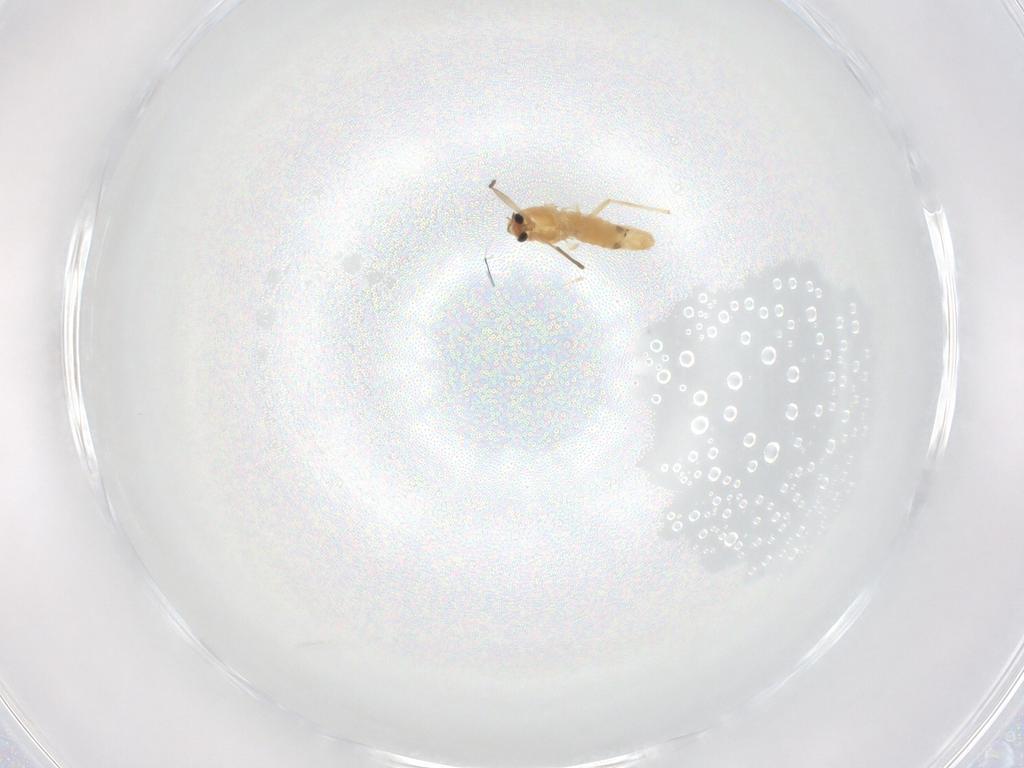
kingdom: Animalia
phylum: Arthropoda
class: Insecta
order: Diptera
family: Chironomidae
